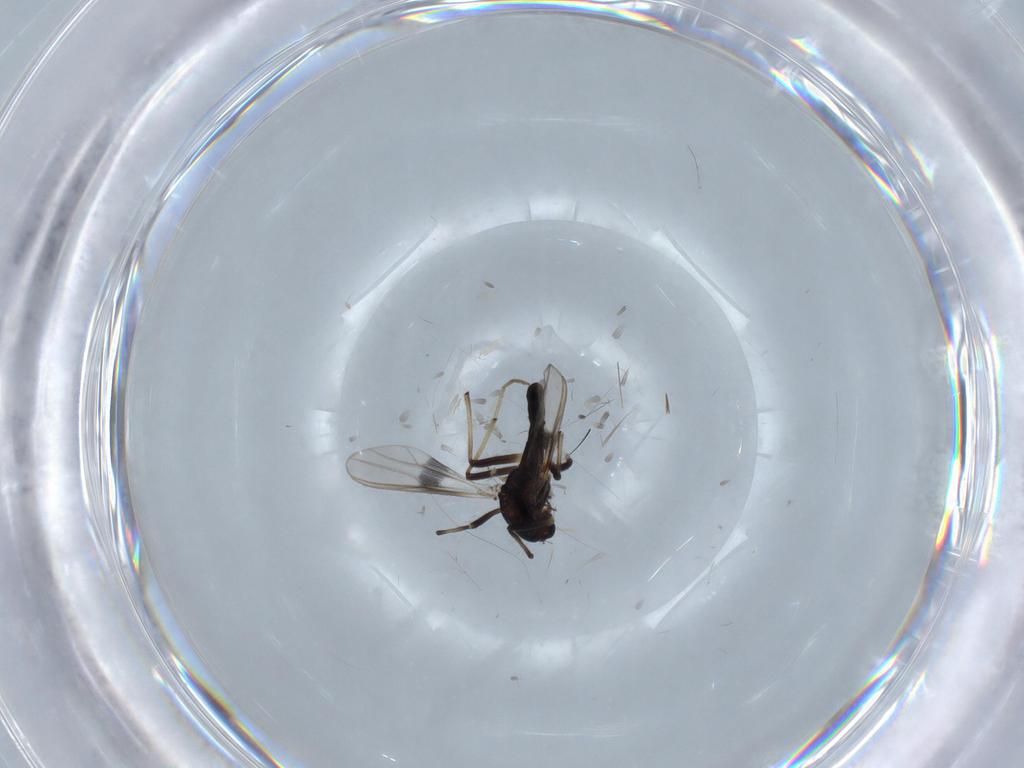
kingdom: Animalia
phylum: Arthropoda
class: Insecta
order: Diptera
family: Chironomidae
